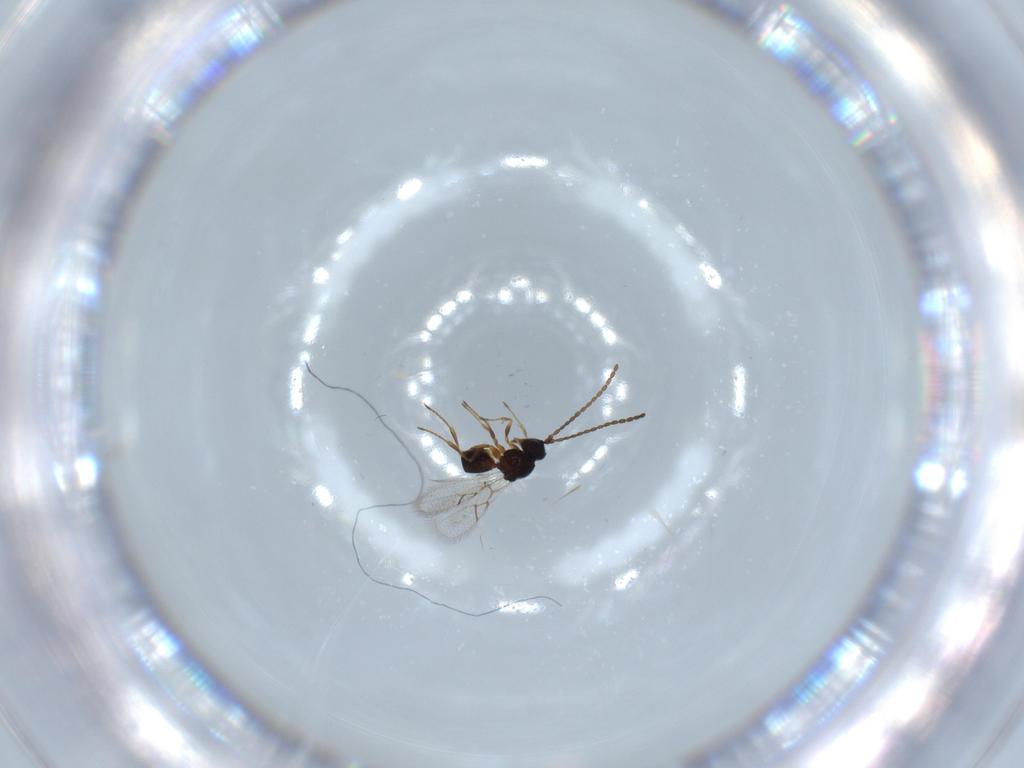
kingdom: Animalia
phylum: Arthropoda
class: Insecta
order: Hymenoptera
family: Figitidae
